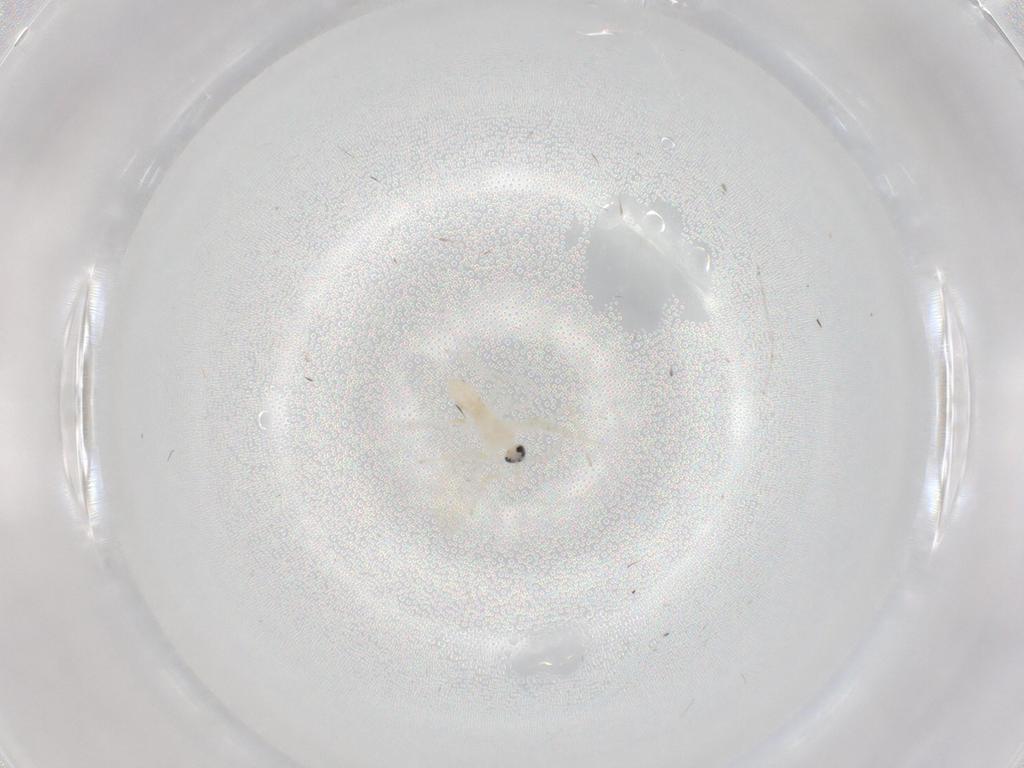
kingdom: Animalia
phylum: Arthropoda
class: Insecta
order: Diptera
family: Cecidomyiidae
